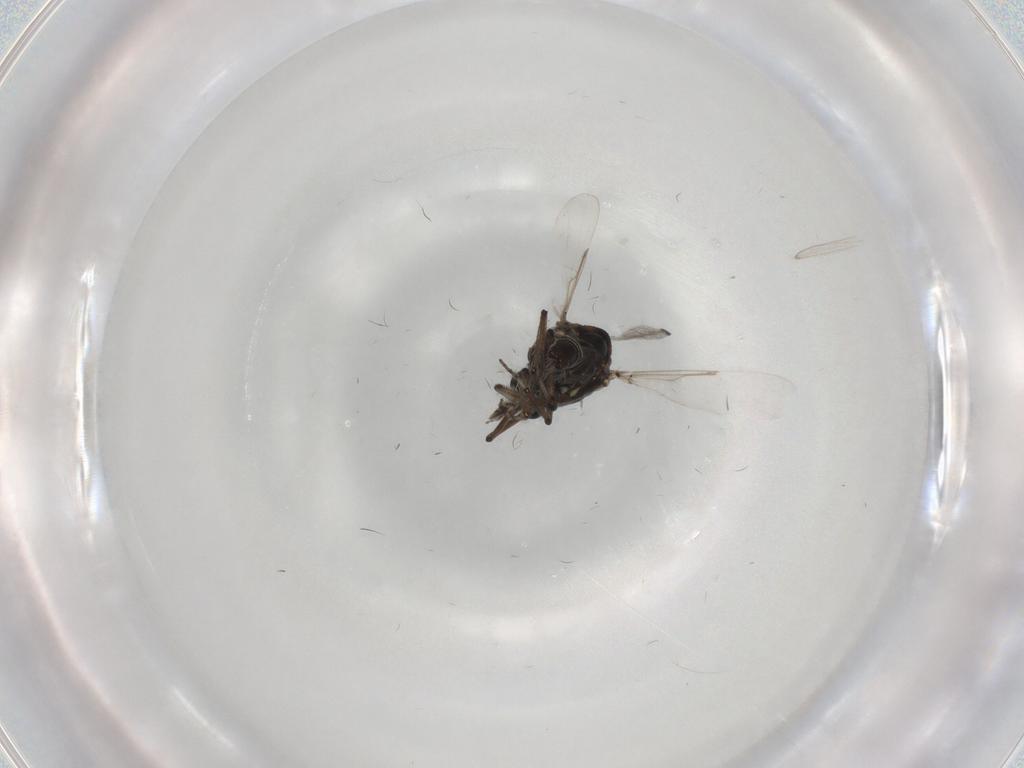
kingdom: Animalia
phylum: Arthropoda
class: Insecta
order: Diptera
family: Ceratopogonidae
